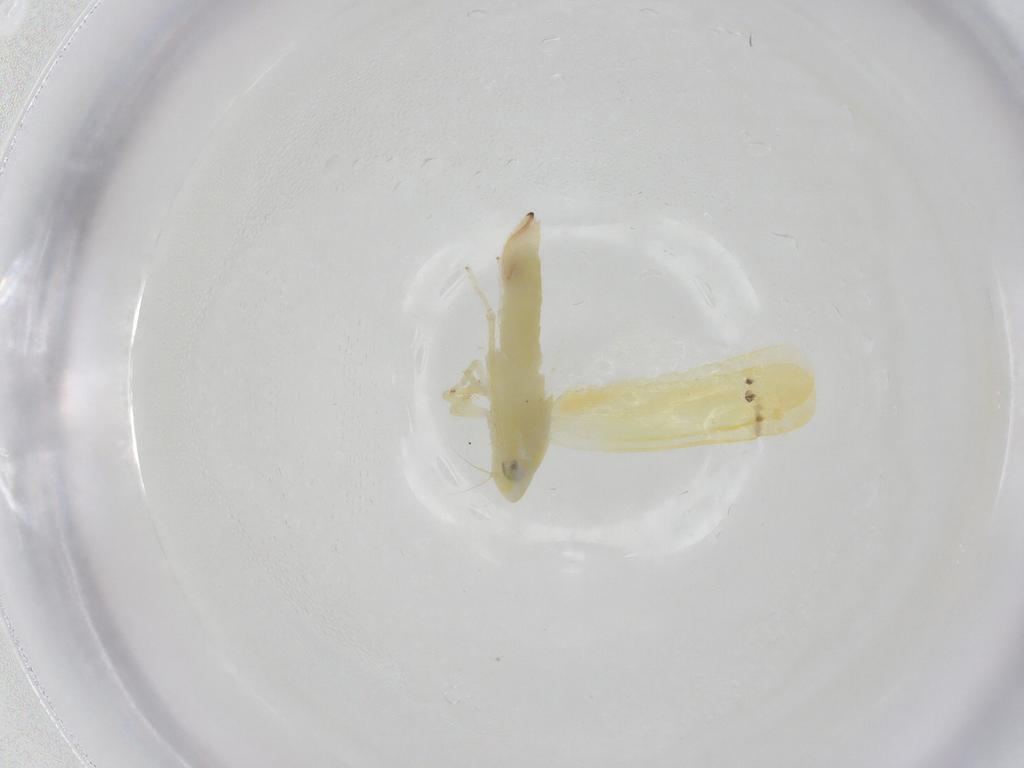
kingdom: Animalia
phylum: Arthropoda
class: Insecta
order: Hemiptera
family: Cicadellidae
